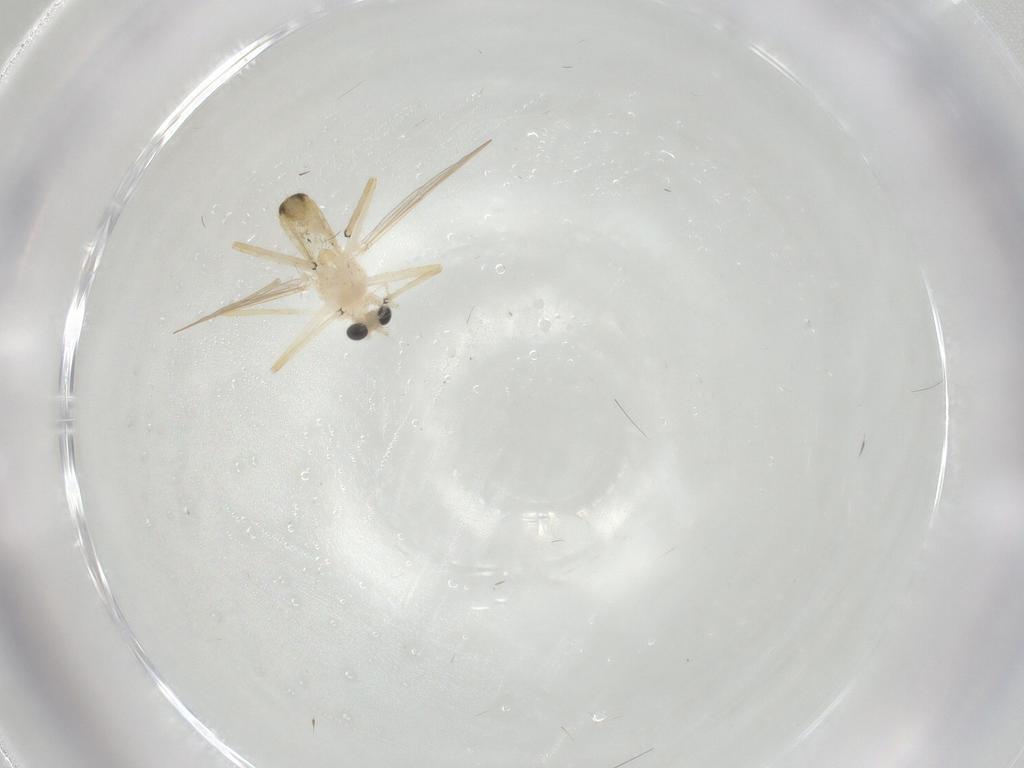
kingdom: Animalia
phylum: Arthropoda
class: Insecta
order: Diptera
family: Chironomidae
